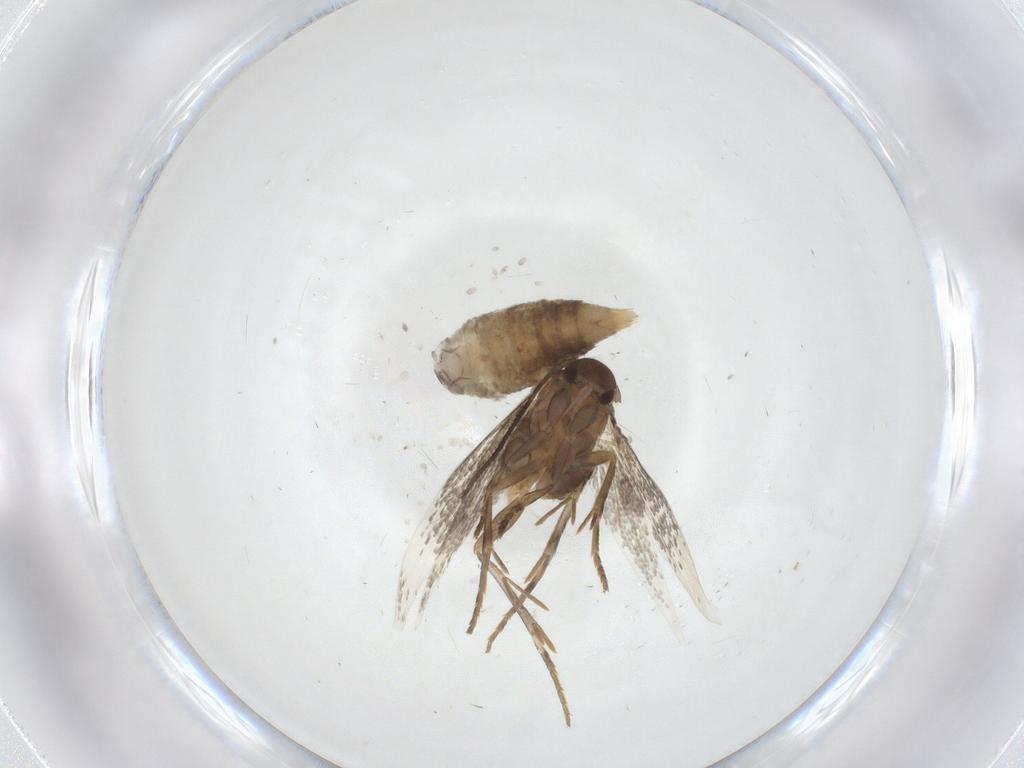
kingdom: Animalia
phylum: Arthropoda
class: Insecta
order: Lepidoptera
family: Elachistidae
